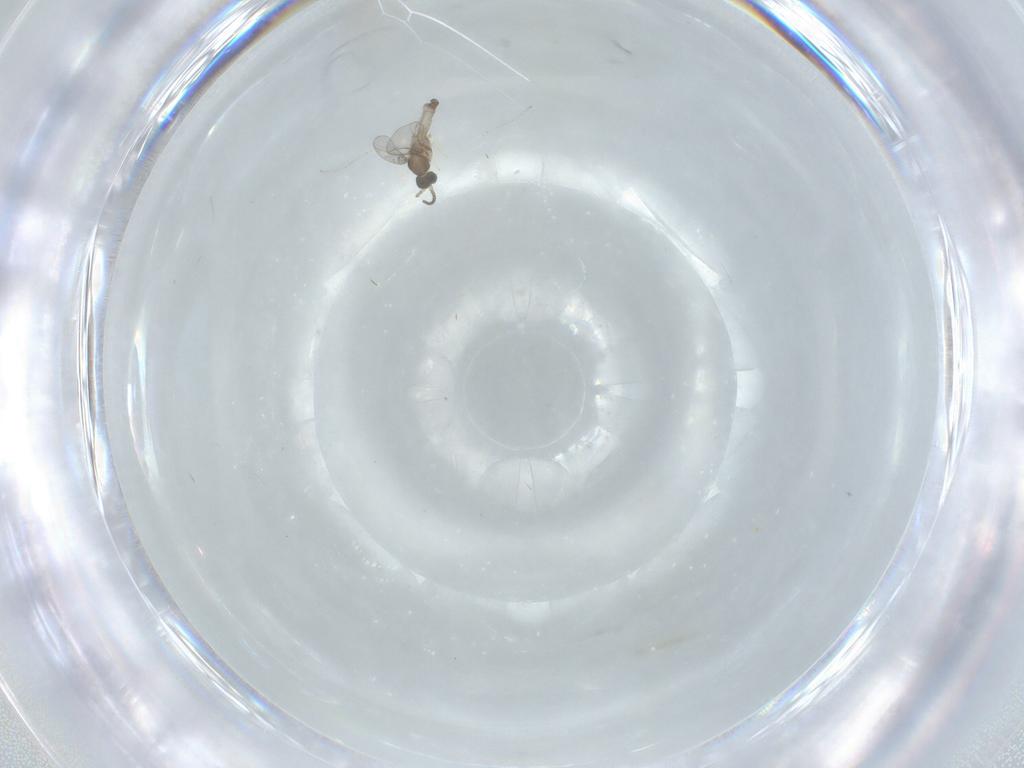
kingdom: Animalia
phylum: Arthropoda
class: Insecta
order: Diptera
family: Cecidomyiidae
